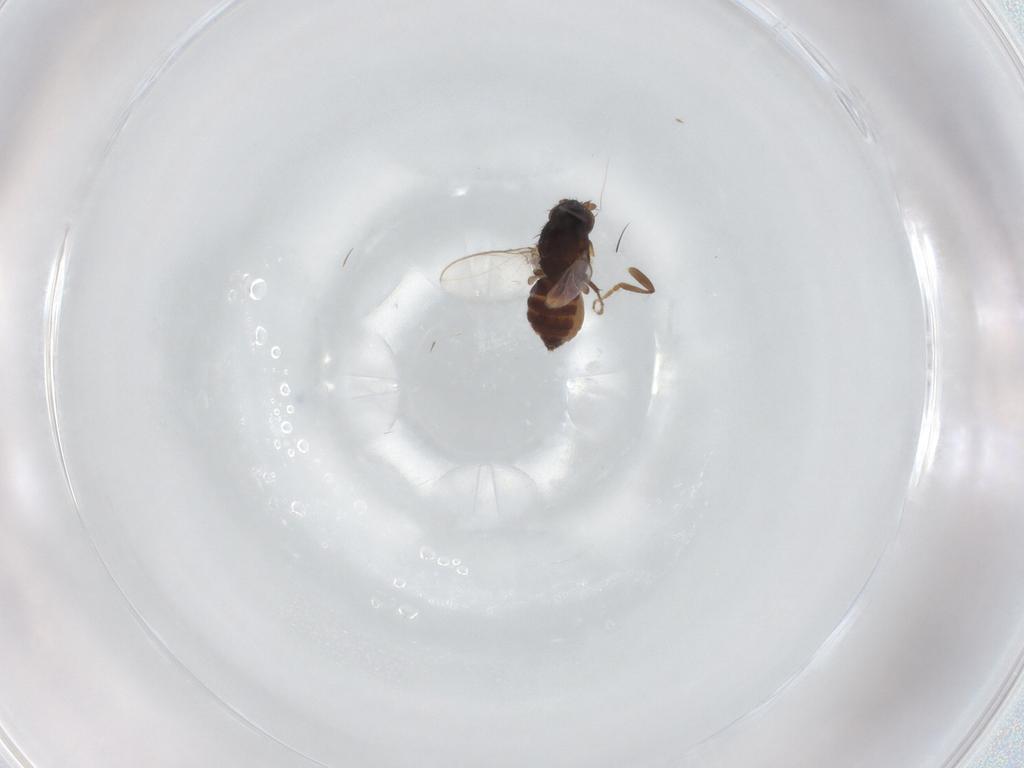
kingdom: Animalia
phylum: Arthropoda
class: Insecta
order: Diptera
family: Sphaeroceridae
